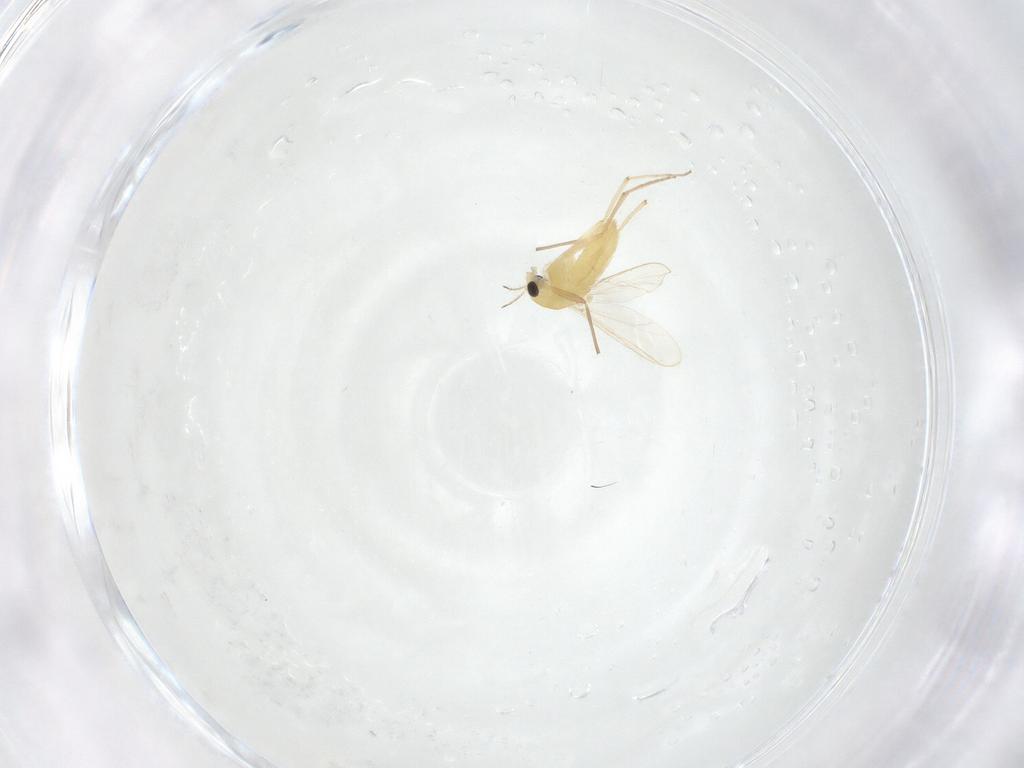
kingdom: Animalia
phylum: Arthropoda
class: Insecta
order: Diptera
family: Chironomidae
